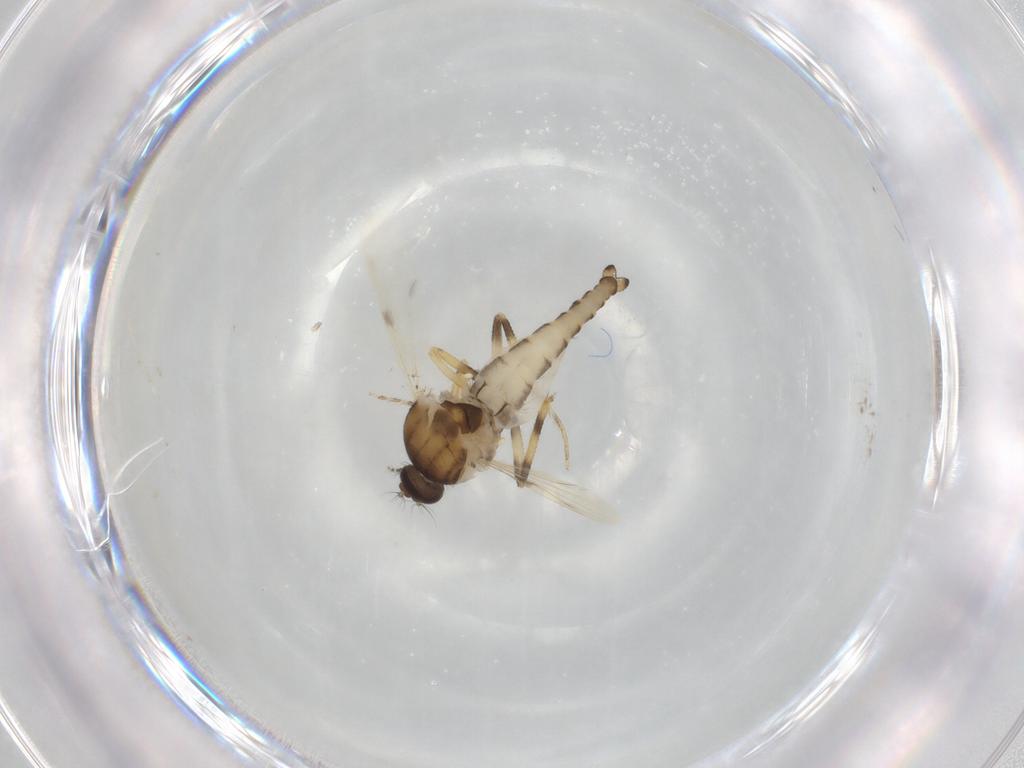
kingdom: Animalia
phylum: Arthropoda
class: Insecta
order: Diptera
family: Ceratopogonidae
